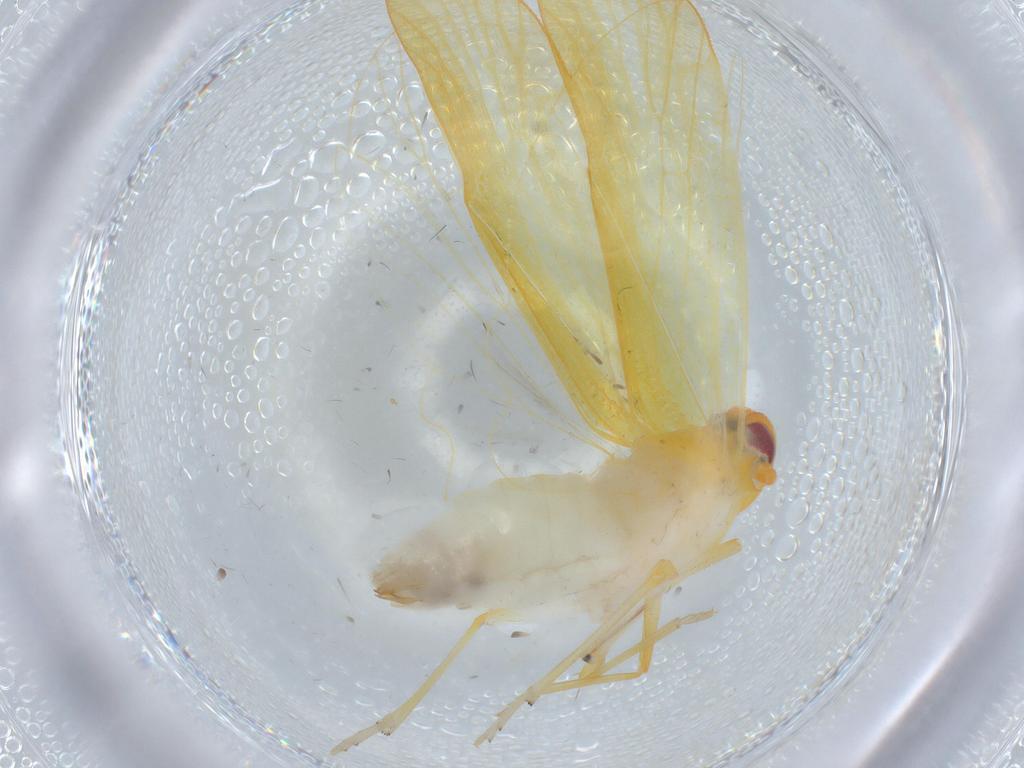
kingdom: Animalia
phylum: Arthropoda
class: Insecta
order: Hemiptera
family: Derbidae
